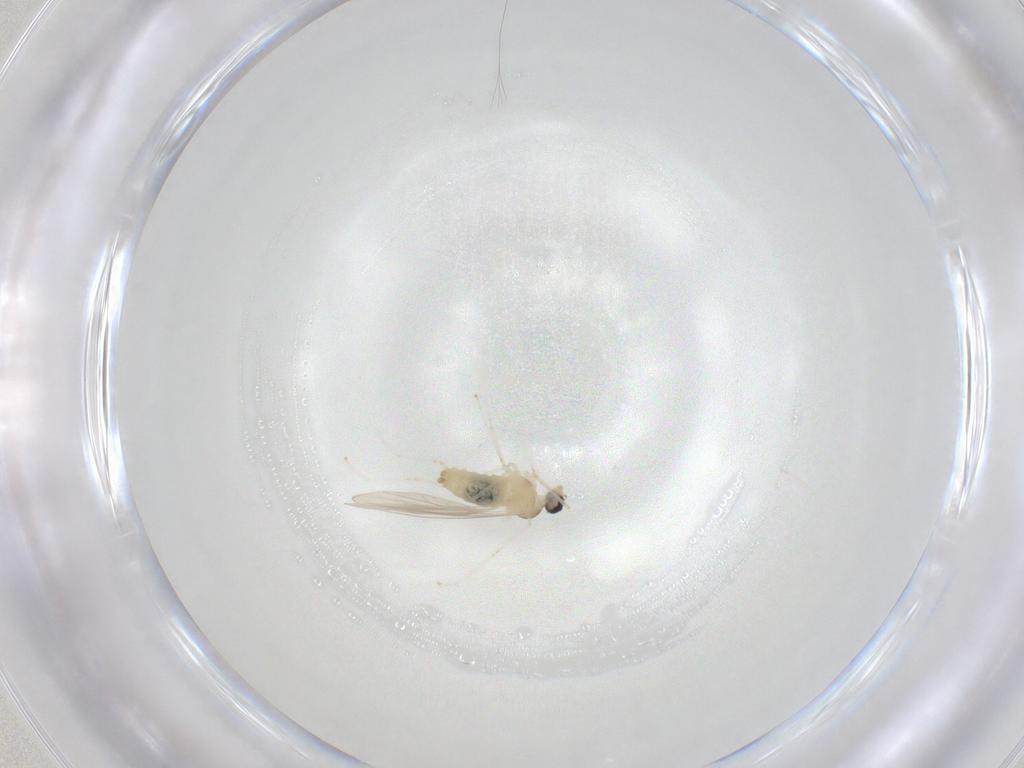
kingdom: Animalia
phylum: Arthropoda
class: Insecta
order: Diptera
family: Cecidomyiidae
